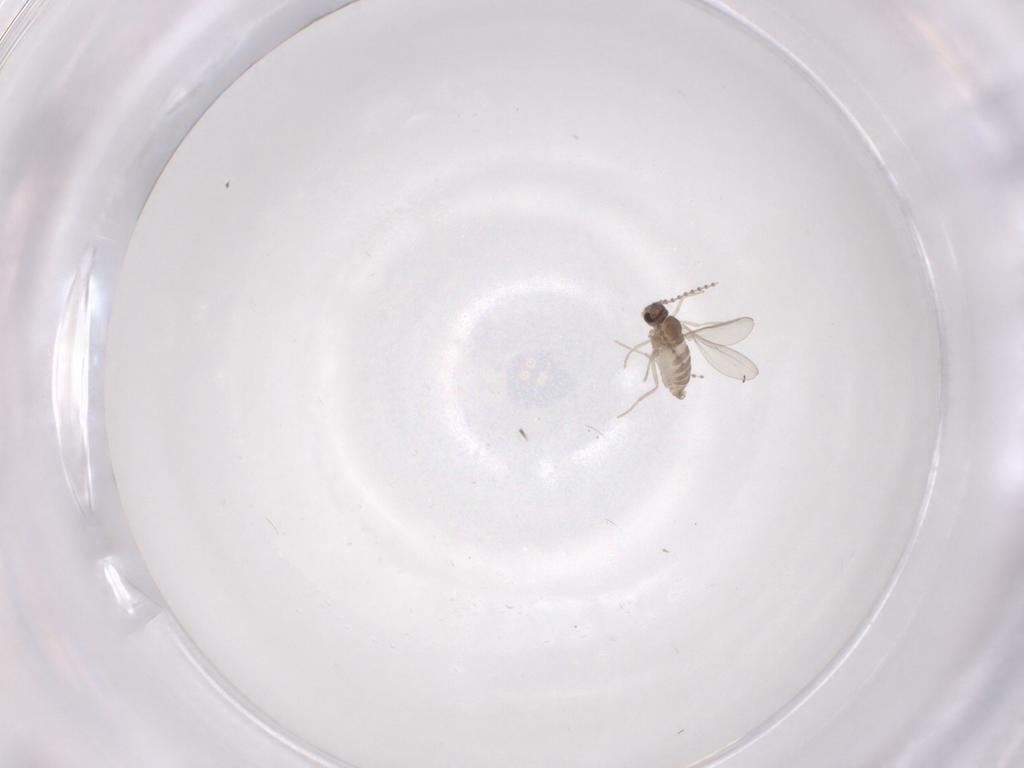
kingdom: Animalia
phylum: Arthropoda
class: Insecta
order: Diptera
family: Cecidomyiidae
